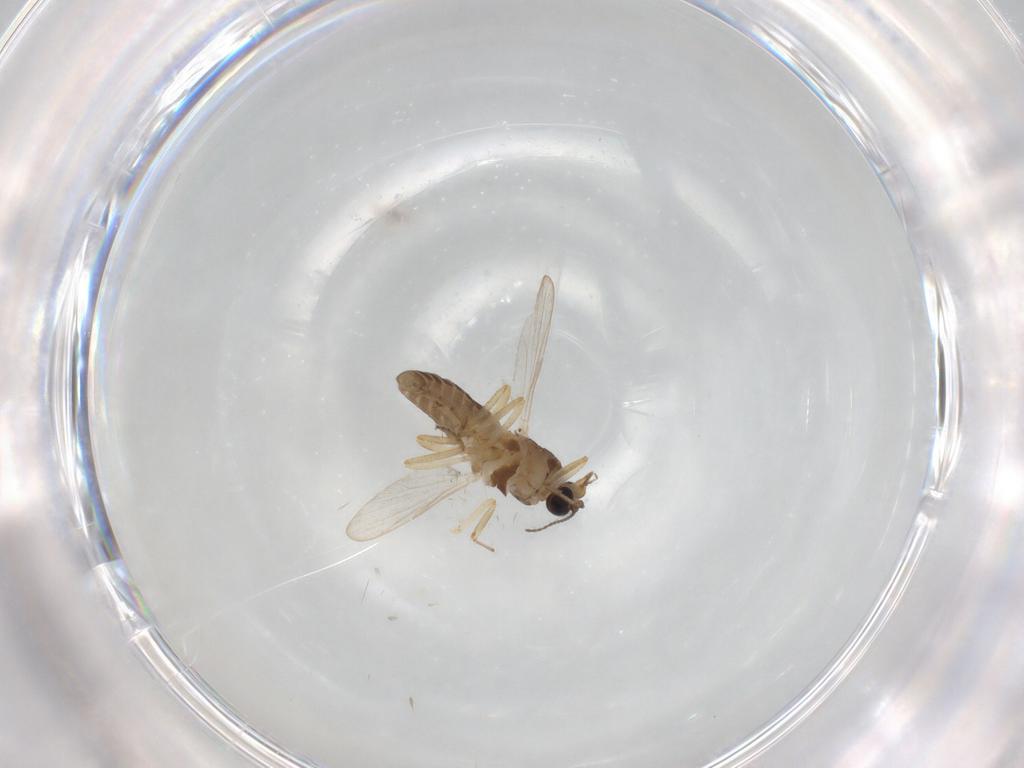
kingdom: Animalia
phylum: Arthropoda
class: Insecta
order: Diptera
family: Ceratopogonidae
